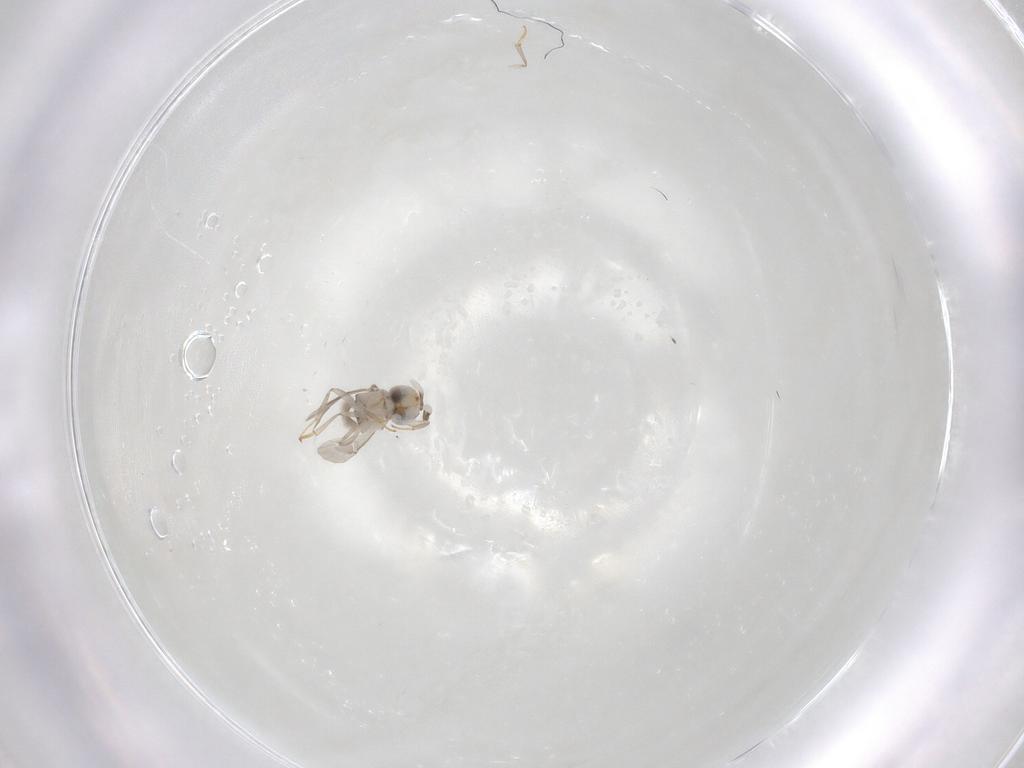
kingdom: Animalia
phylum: Arthropoda
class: Insecta
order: Hymenoptera
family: Encyrtidae
